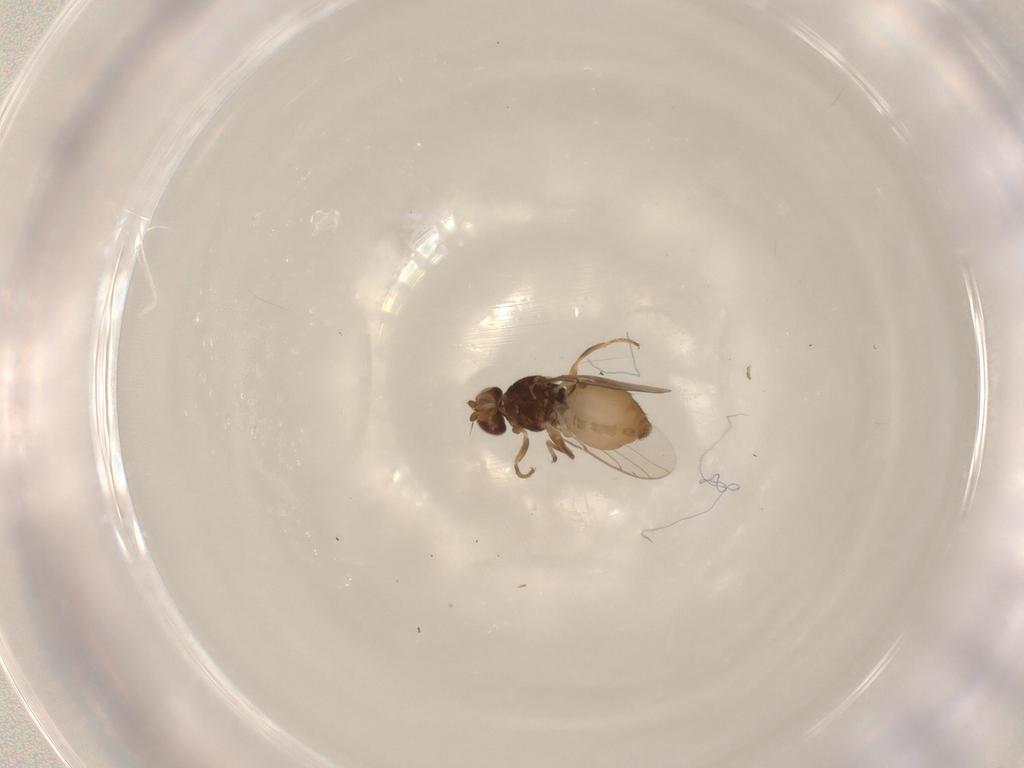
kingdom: Animalia
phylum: Arthropoda
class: Insecta
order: Diptera
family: Chloropidae
